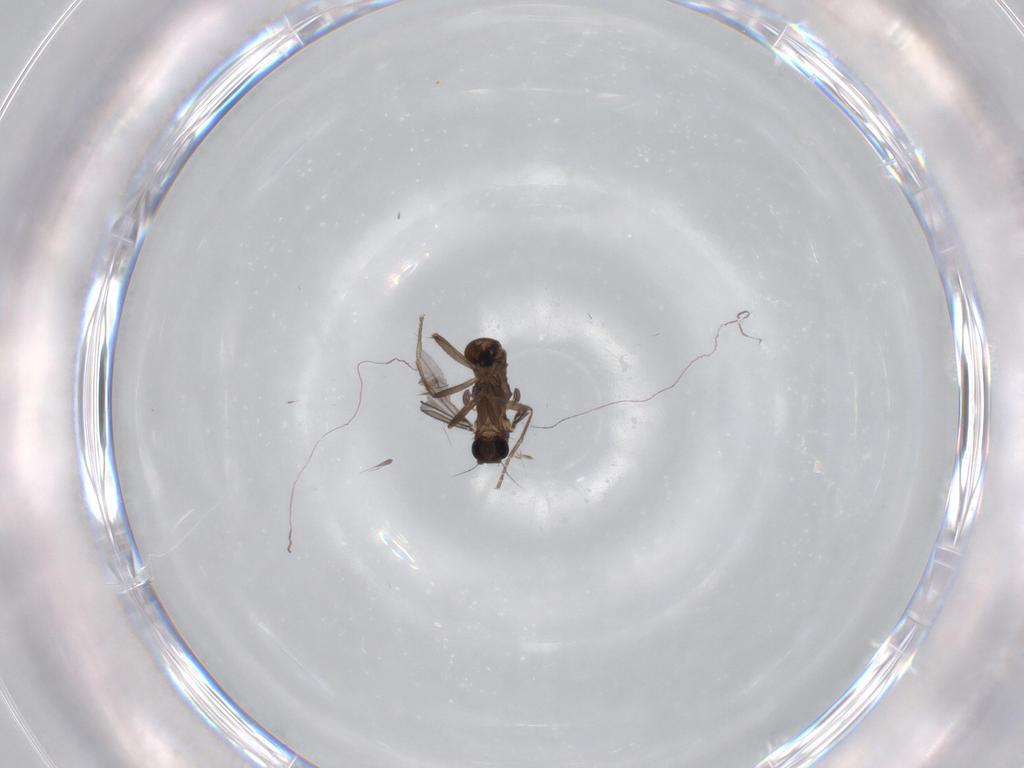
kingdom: Animalia
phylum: Arthropoda
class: Insecta
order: Diptera
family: Phoridae
